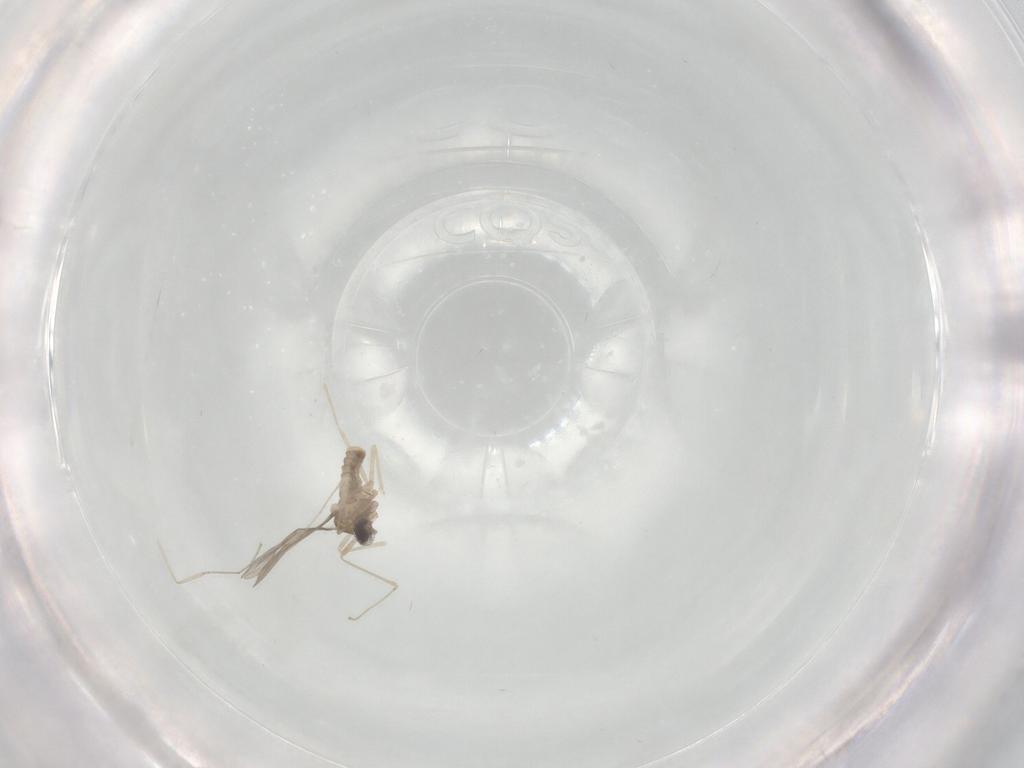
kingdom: Animalia
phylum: Arthropoda
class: Insecta
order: Diptera
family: Cecidomyiidae
